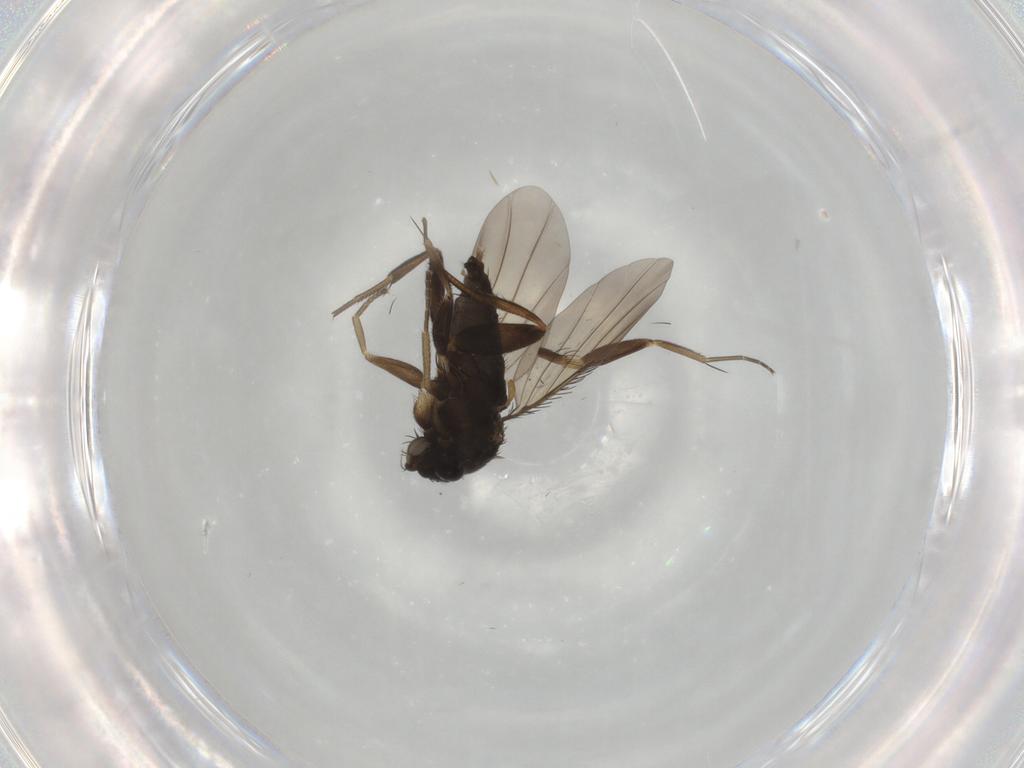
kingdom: Animalia
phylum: Arthropoda
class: Insecta
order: Diptera
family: Phoridae
